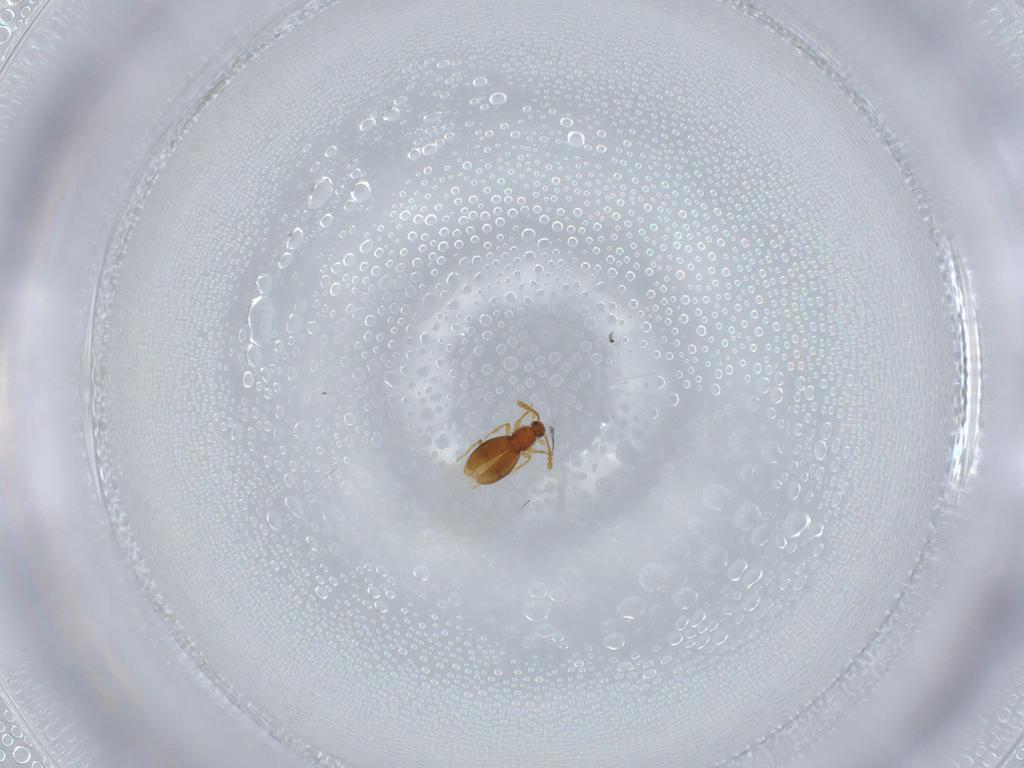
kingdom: Animalia
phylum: Arthropoda
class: Insecta
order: Coleoptera
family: Staphylinidae
